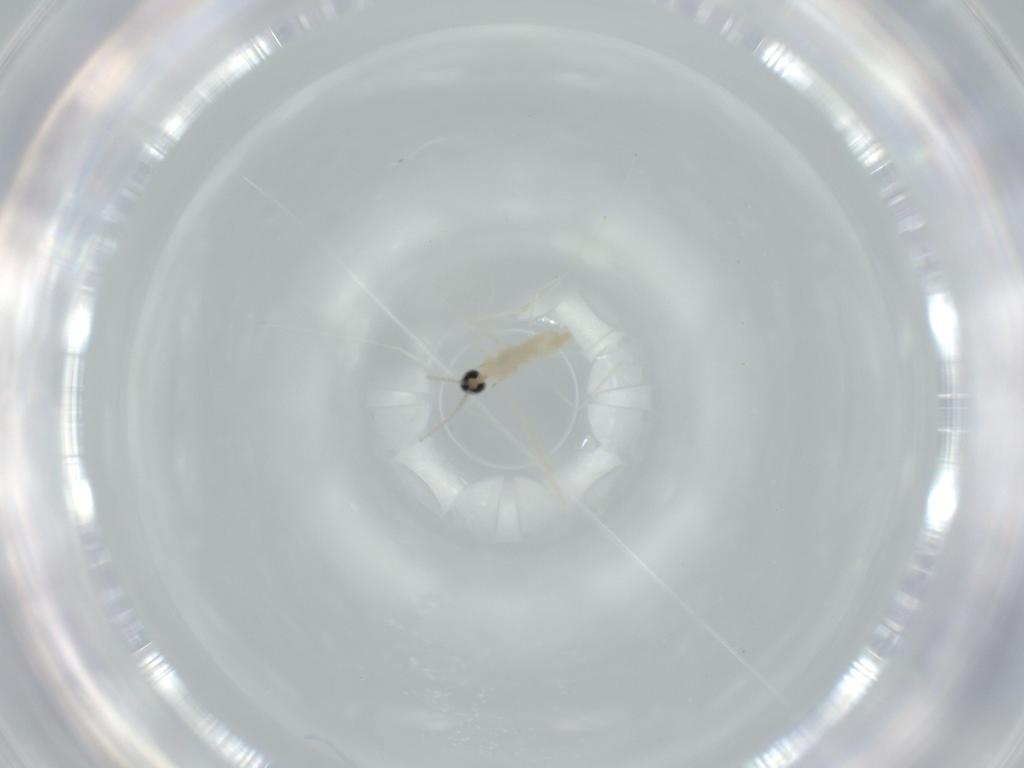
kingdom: Animalia
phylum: Arthropoda
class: Insecta
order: Diptera
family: Cecidomyiidae
